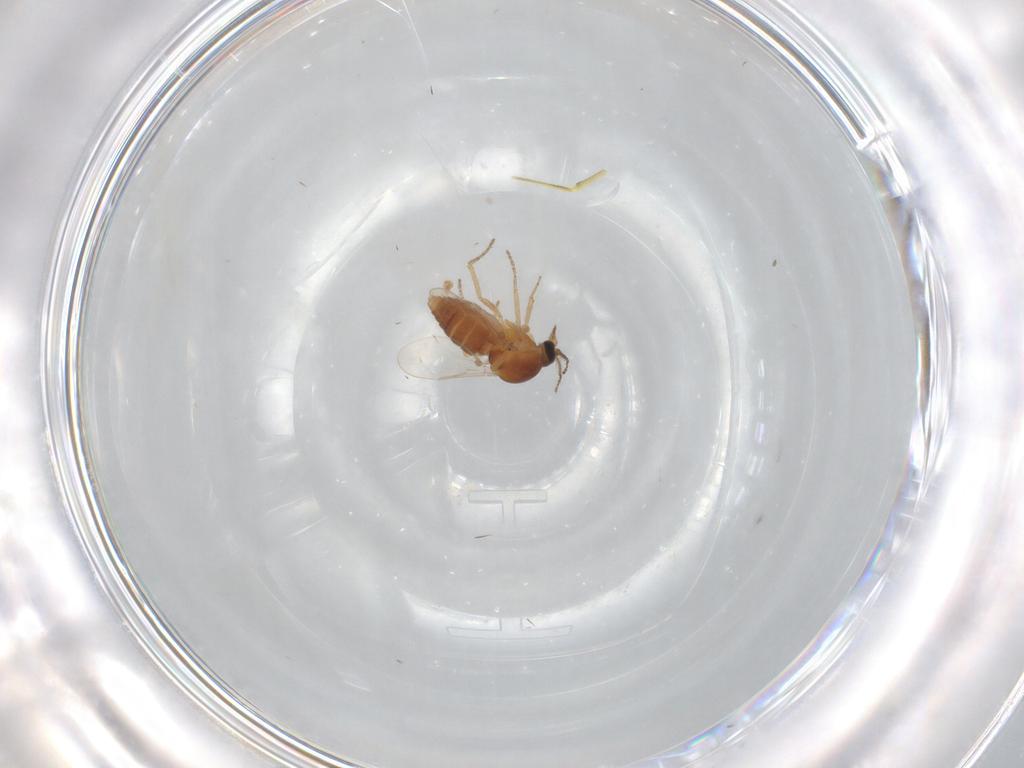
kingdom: Animalia
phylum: Arthropoda
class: Insecta
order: Diptera
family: Ceratopogonidae
